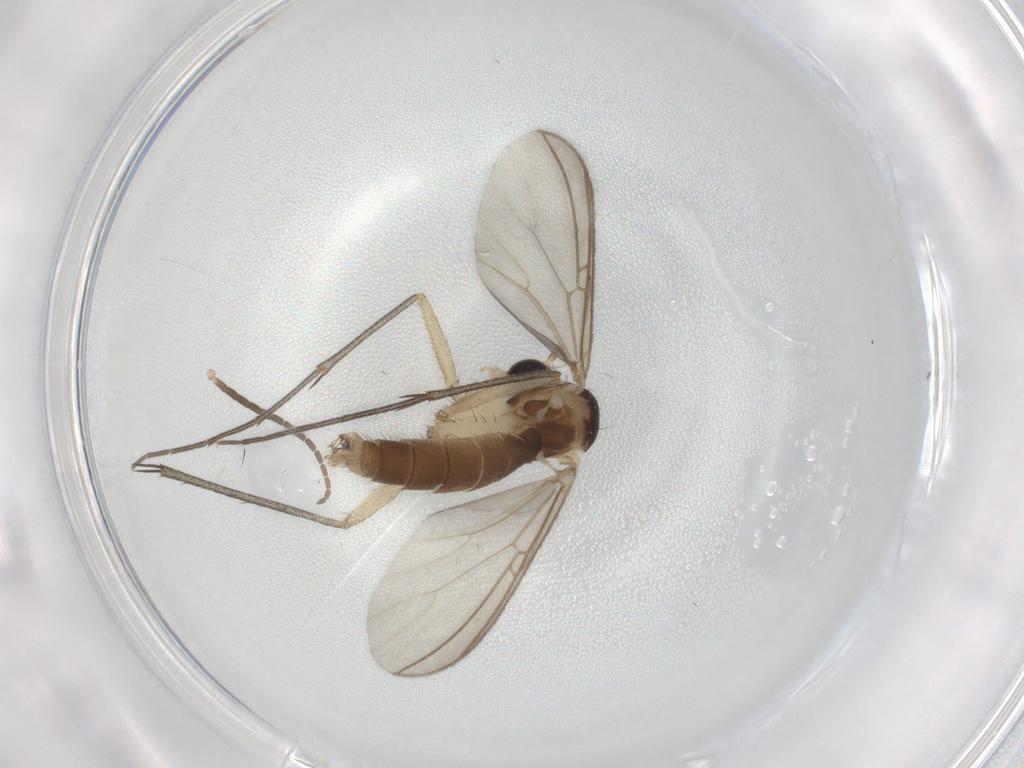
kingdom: Animalia
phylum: Arthropoda
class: Insecta
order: Diptera
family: Mycetophilidae
